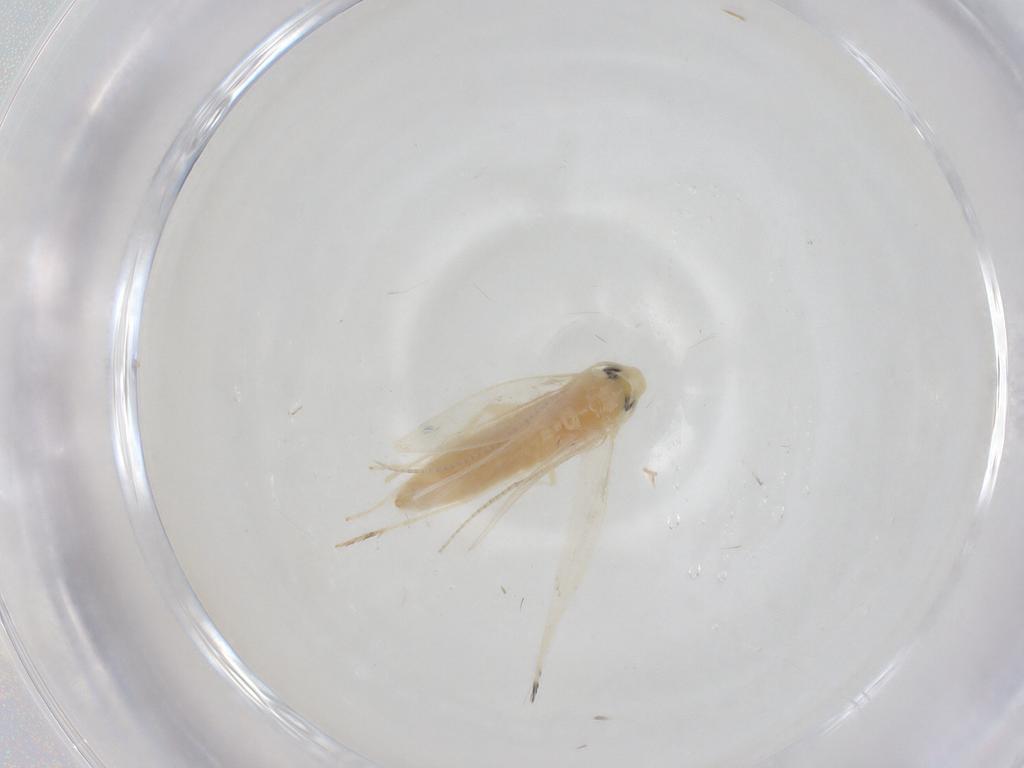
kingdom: Animalia
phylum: Arthropoda
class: Insecta
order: Lepidoptera
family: Gracillariidae
